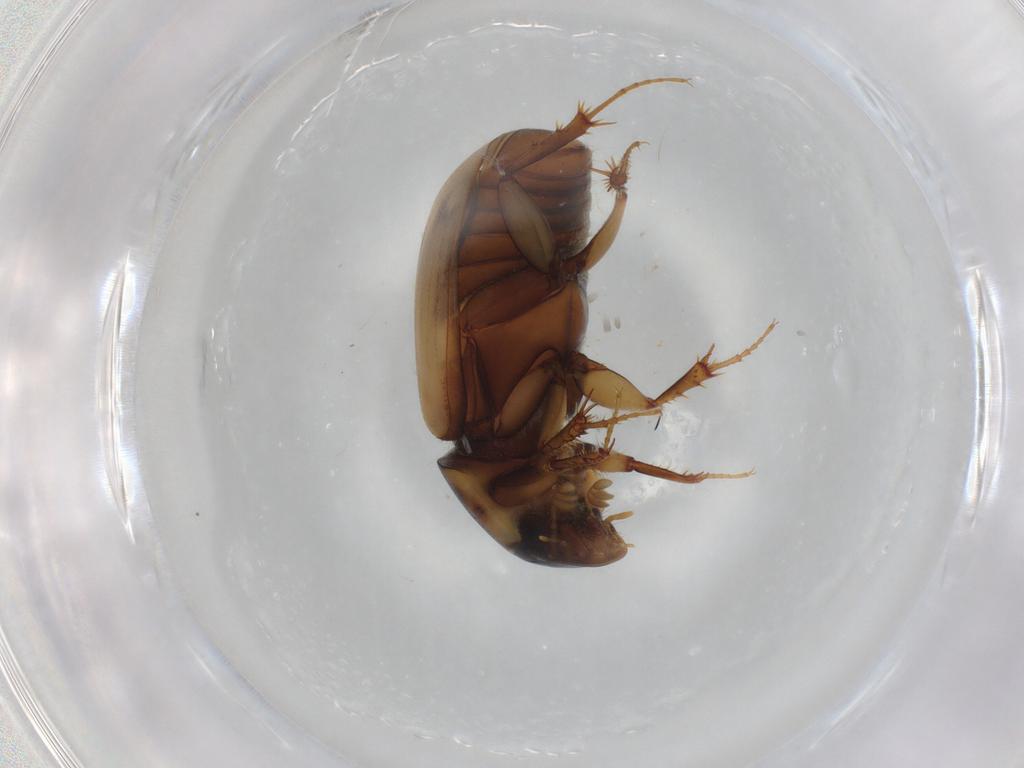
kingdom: Animalia
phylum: Arthropoda
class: Insecta
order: Coleoptera
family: Scarabaeidae
